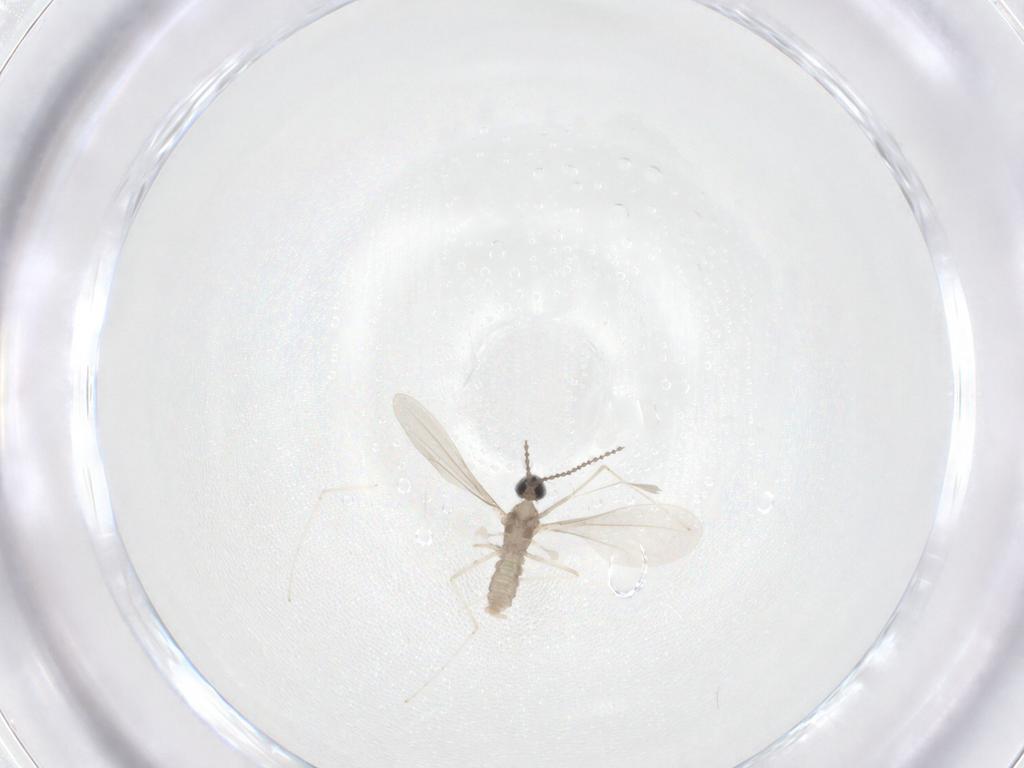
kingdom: Animalia
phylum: Arthropoda
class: Insecta
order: Diptera
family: Cecidomyiidae
